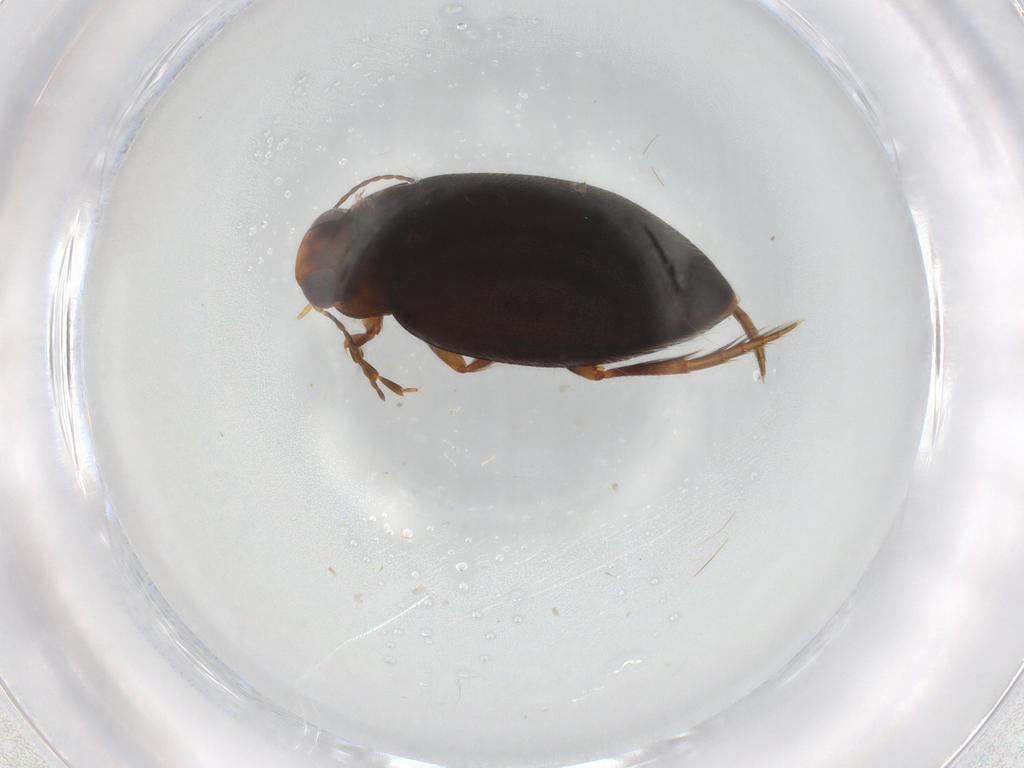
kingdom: Animalia
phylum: Arthropoda
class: Insecta
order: Coleoptera
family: Dytiscidae
